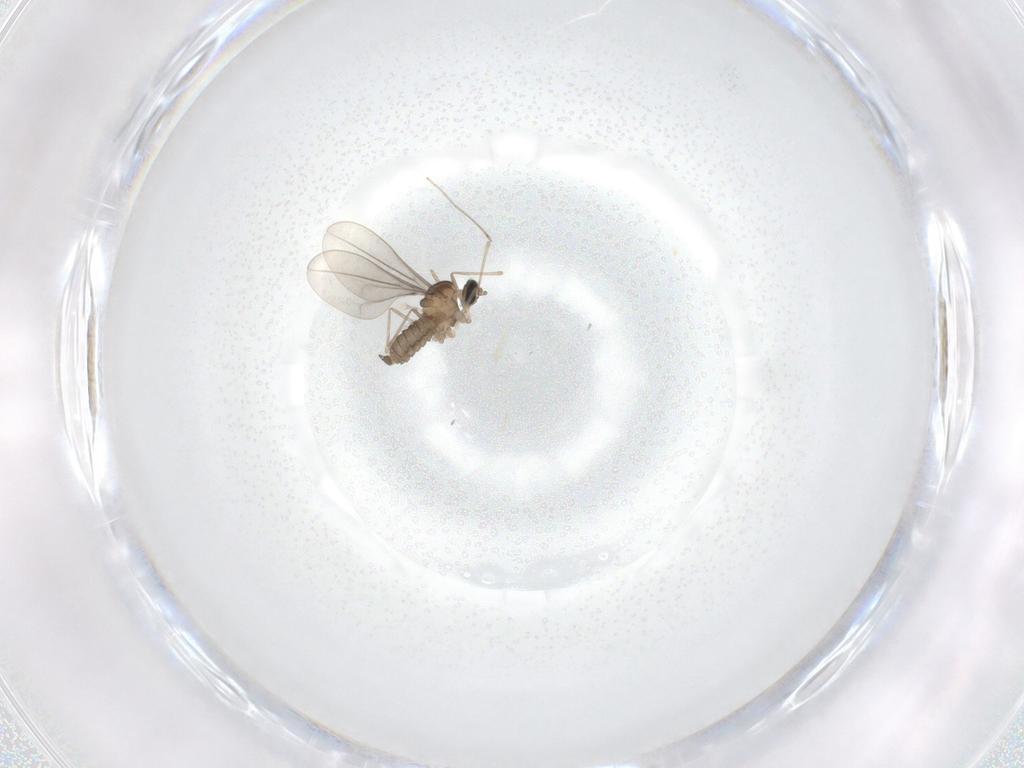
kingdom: Animalia
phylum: Arthropoda
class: Insecta
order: Diptera
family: Cecidomyiidae
